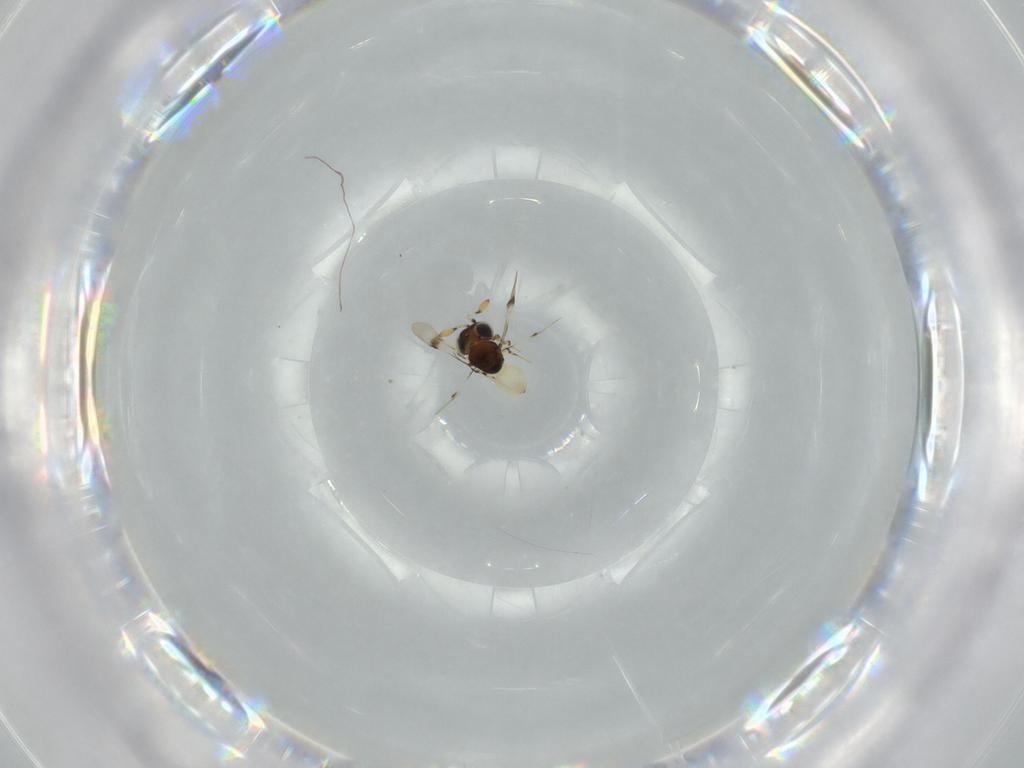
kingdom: Animalia
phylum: Arthropoda
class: Insecta
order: Hymenoptera
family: Scelionidae
